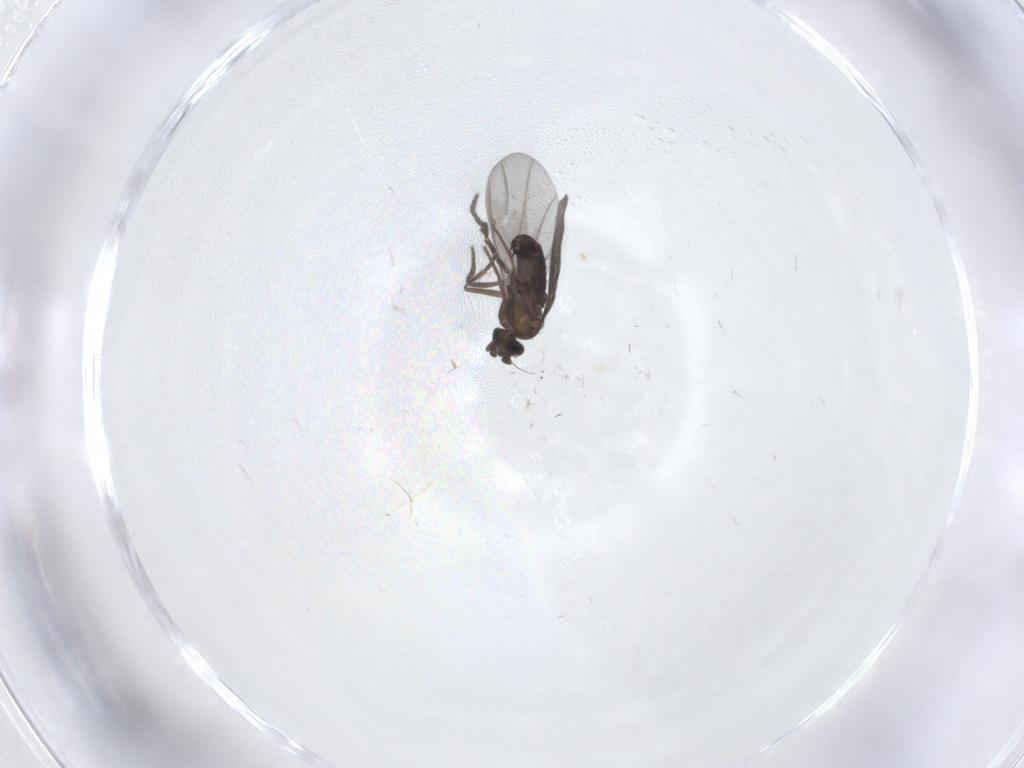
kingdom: Animalia
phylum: Arthropoda
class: Insecta
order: Diptera
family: Phoridae
